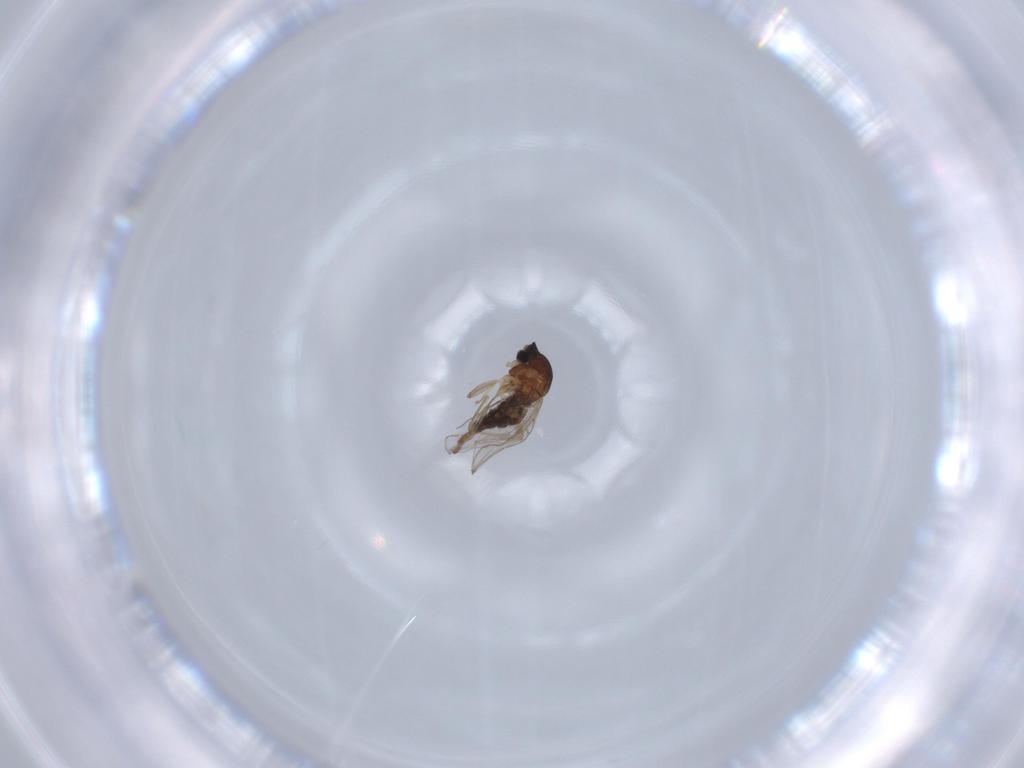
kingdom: Animalia
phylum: Arthropoda
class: Insecta
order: Diptera
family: Cecidomyiidae
